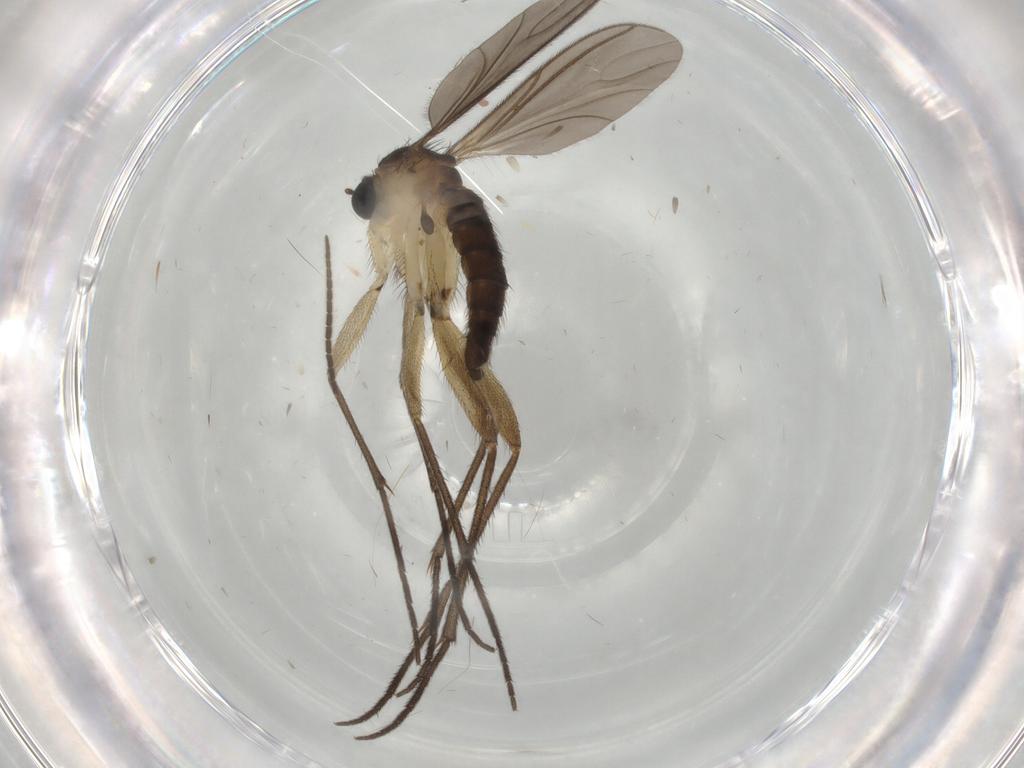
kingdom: Animalia
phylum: Arthropoda
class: Insecta
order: Diptera
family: Sciaridae
